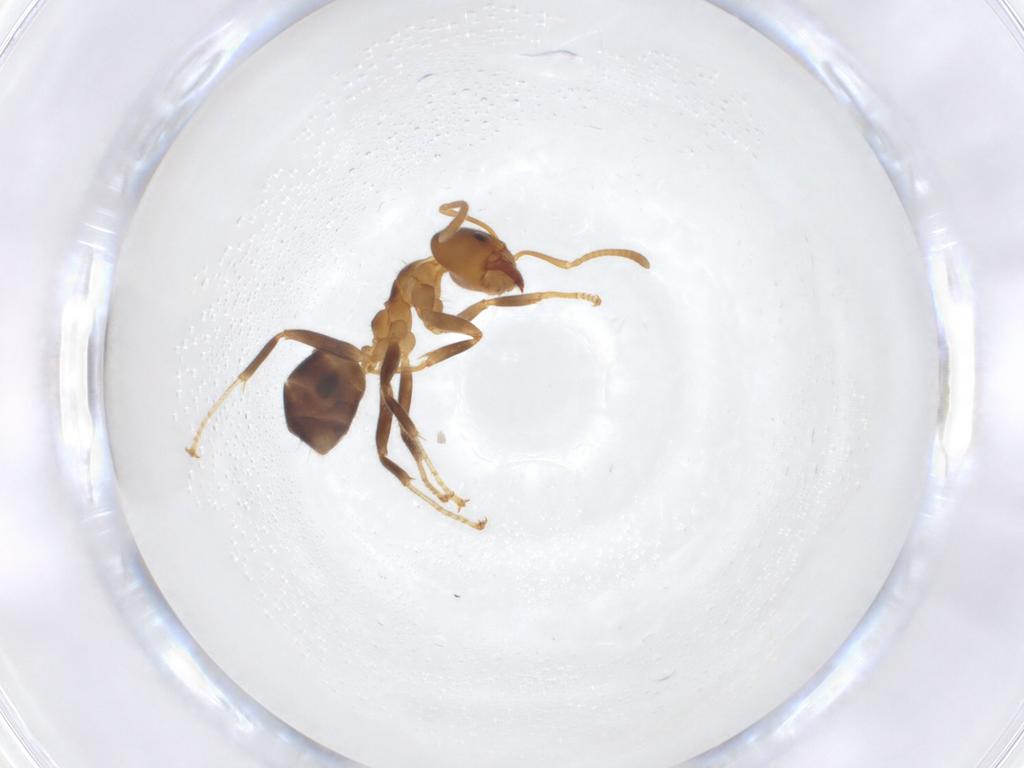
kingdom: Animalia
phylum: Arthropoda
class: Insecta
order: Hymenoptera
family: Formicidae
